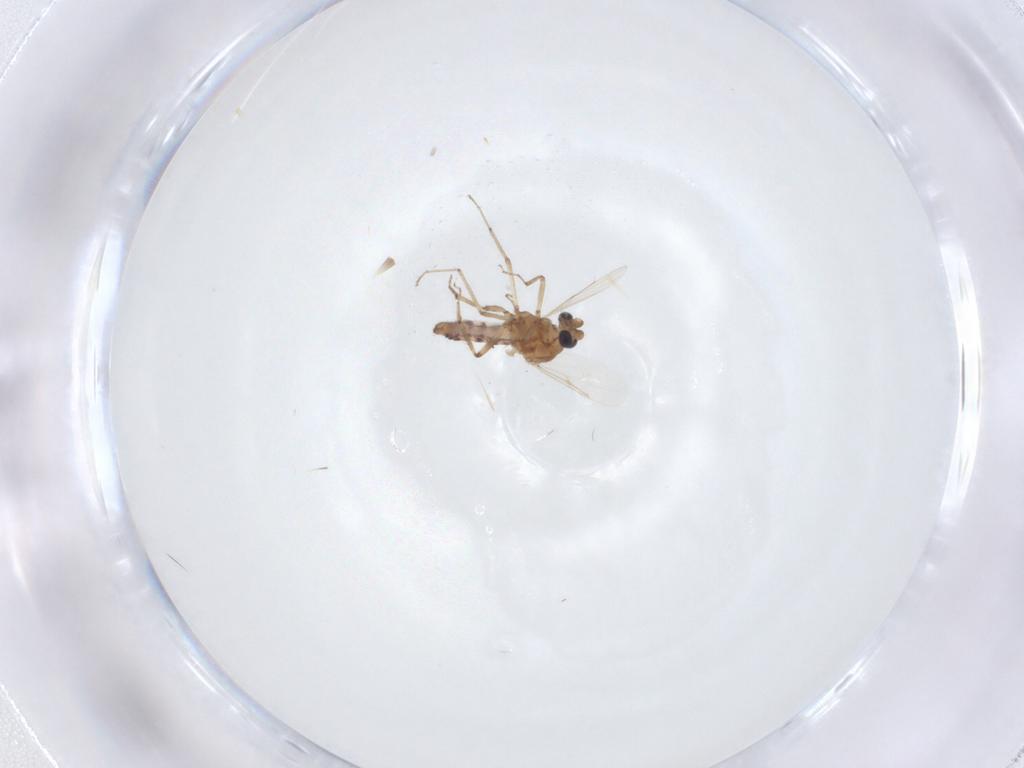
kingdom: Animalia
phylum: Arthropoda
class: Insecta
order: Diptera
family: Ceratopogonidae
